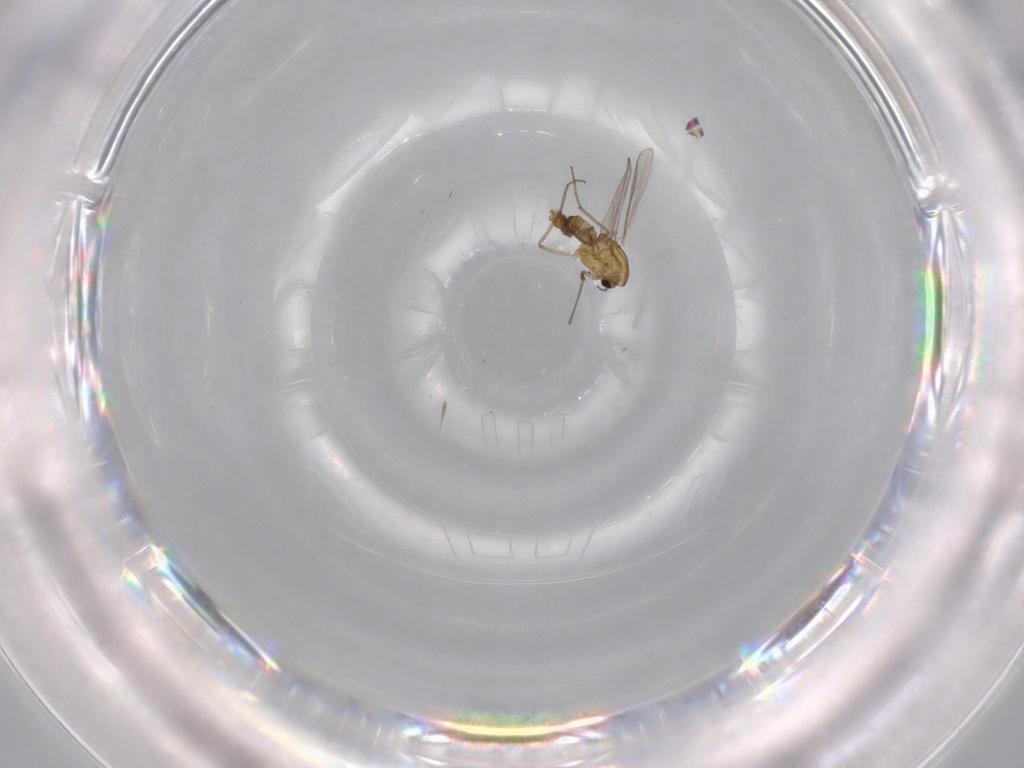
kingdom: Animalia
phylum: Arthropoda
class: Insecta
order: Diptera
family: Chironomidae
